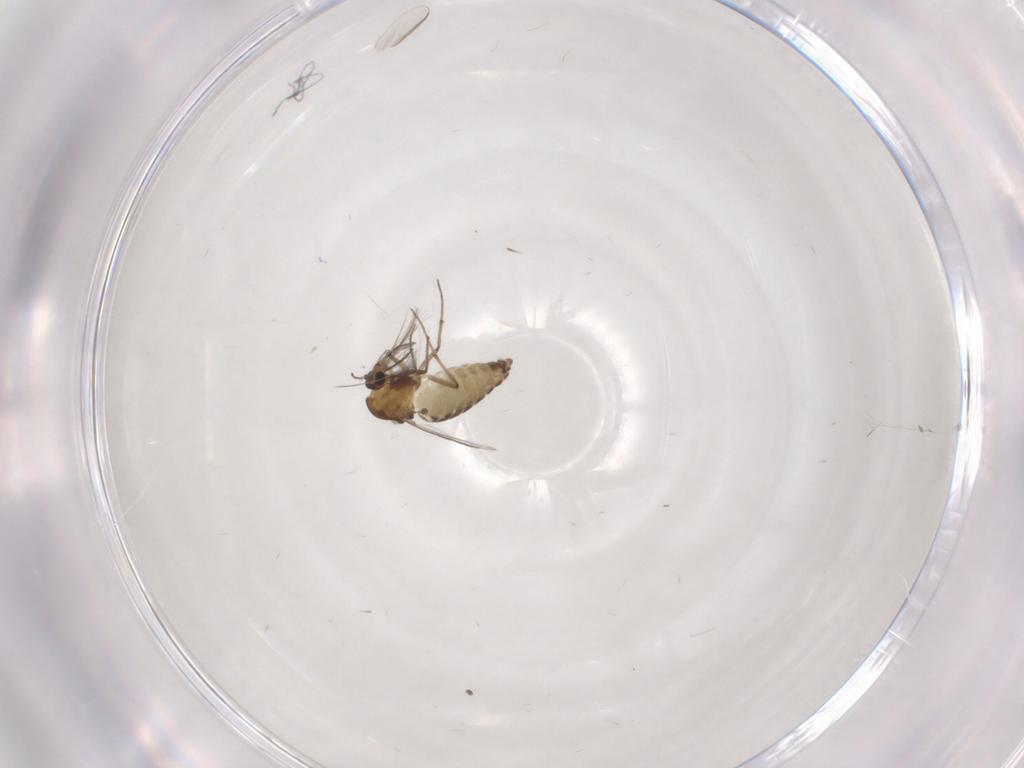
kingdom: Animalia
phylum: Arthropoda
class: Insecta
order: Diptera
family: Chironomidae
